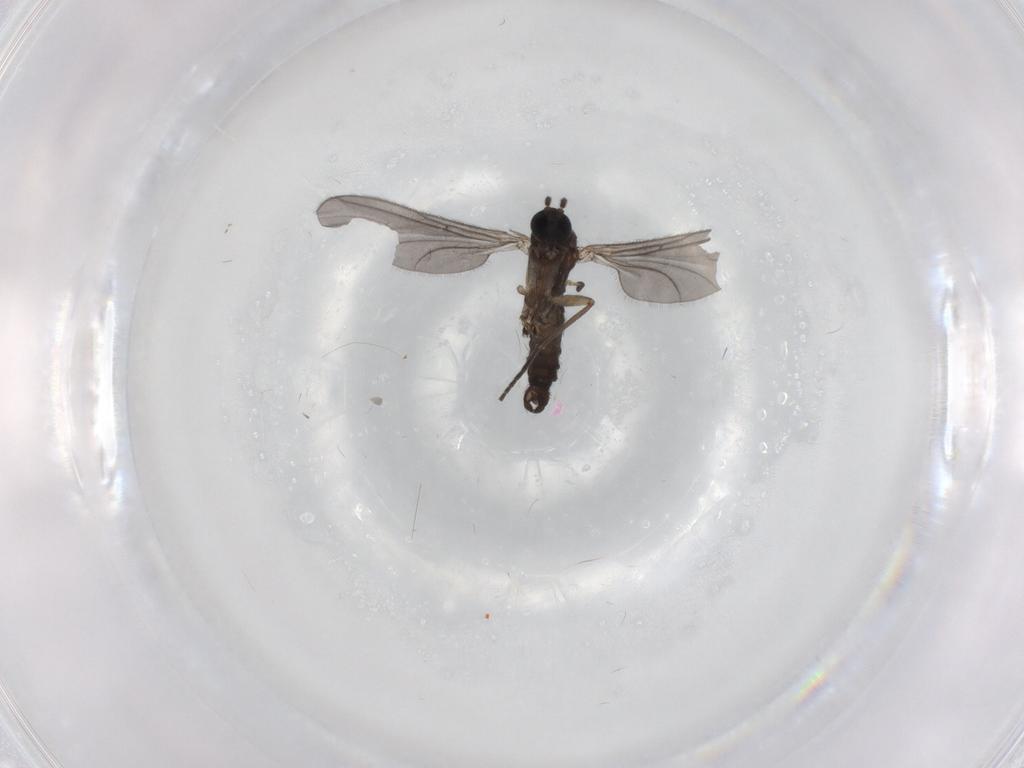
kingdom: Animalia
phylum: Arthropoda
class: Insecta
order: Diptera
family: Sciaridae
